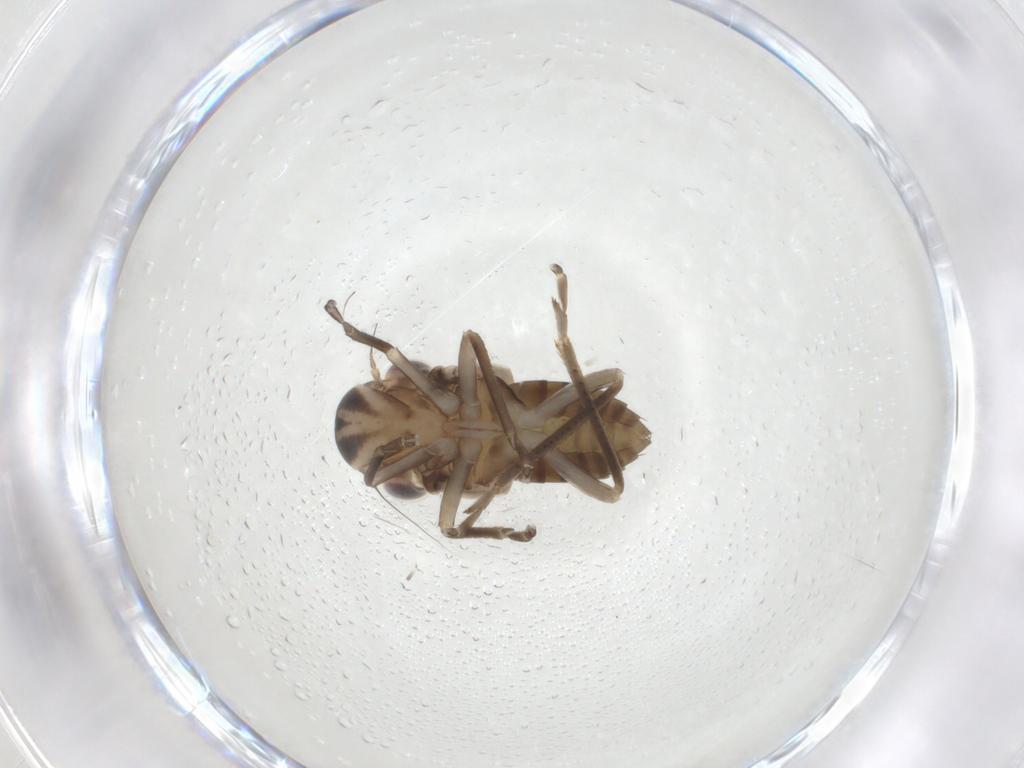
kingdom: Animalia
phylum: Arthropoda
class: Insecta
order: Hemiptera
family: Cicadellidae
